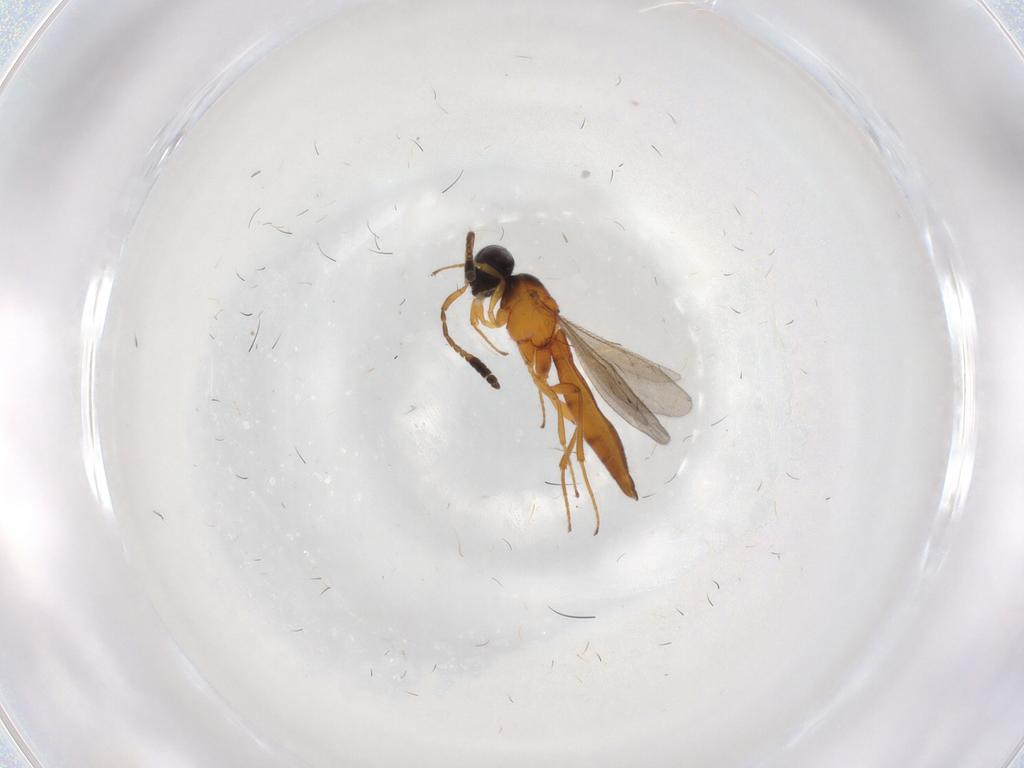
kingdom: Animalia
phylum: Arthropoda
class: Insecta
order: Hymenoptera
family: Scelionidae
